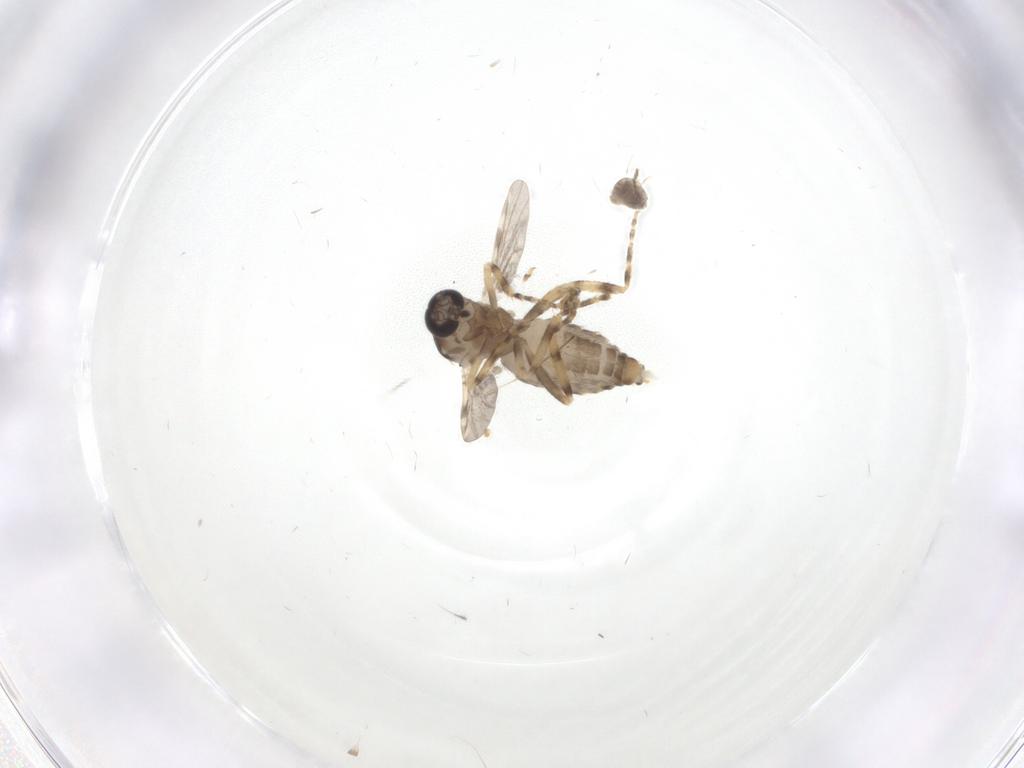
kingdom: Animalia
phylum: Arthropoda
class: Insecta
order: Diptera
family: Mycetophilidae
